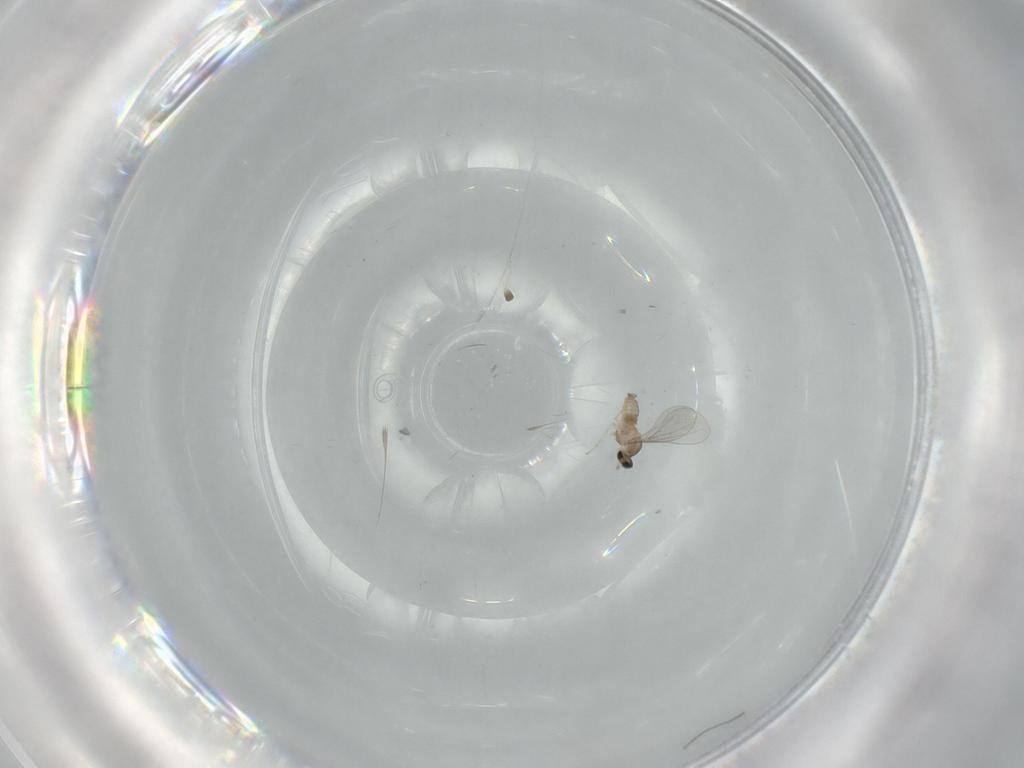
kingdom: Animalia
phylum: Arthropoda
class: Insecta
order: Diptera
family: Cecidomyiidae
